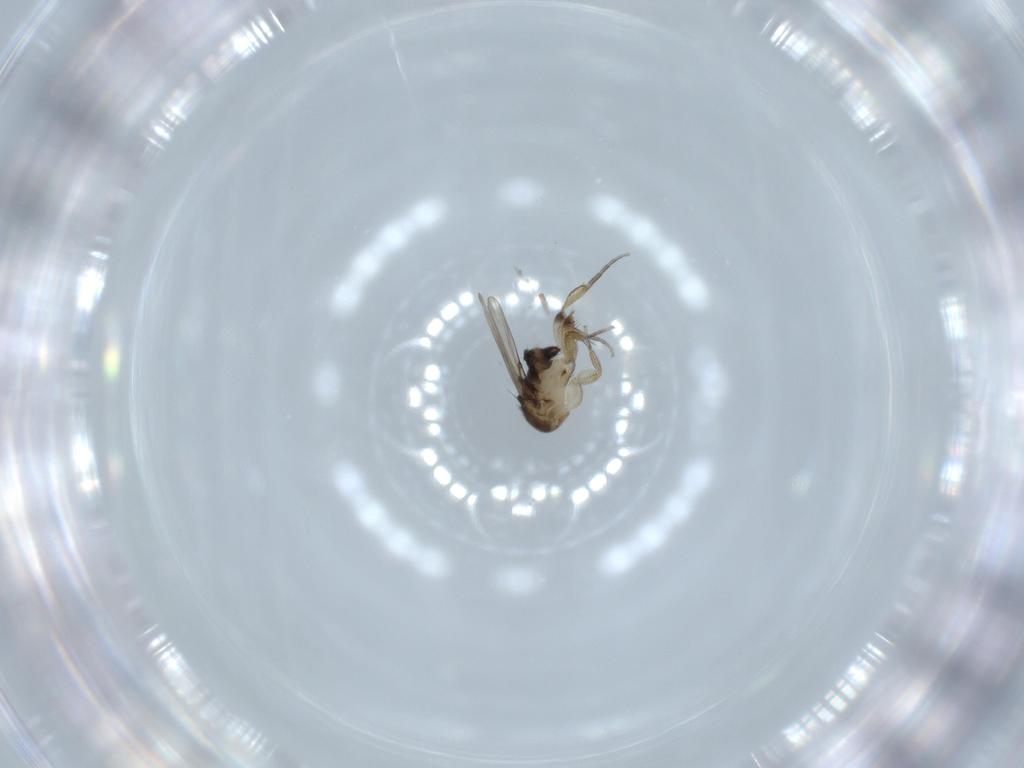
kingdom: Animalia
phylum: Arthropoda
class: Insecta
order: Diptera
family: Phoridae
